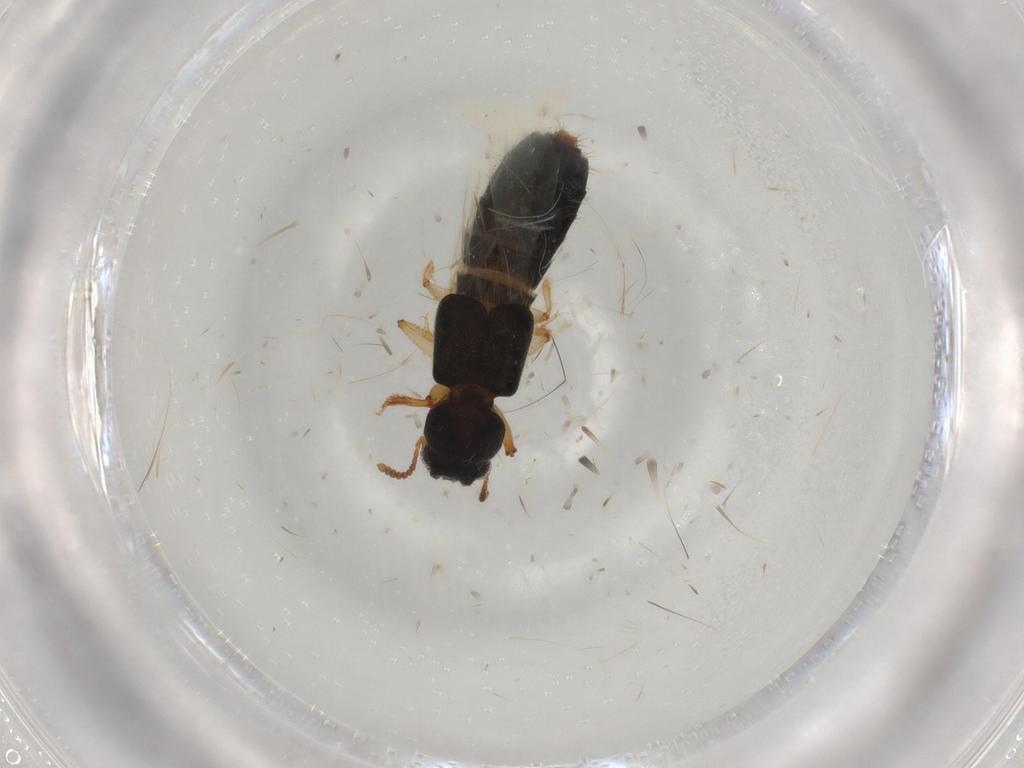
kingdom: Animalia
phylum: Arthropoda
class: Insecta
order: Coleoptera
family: Staphylinidae
